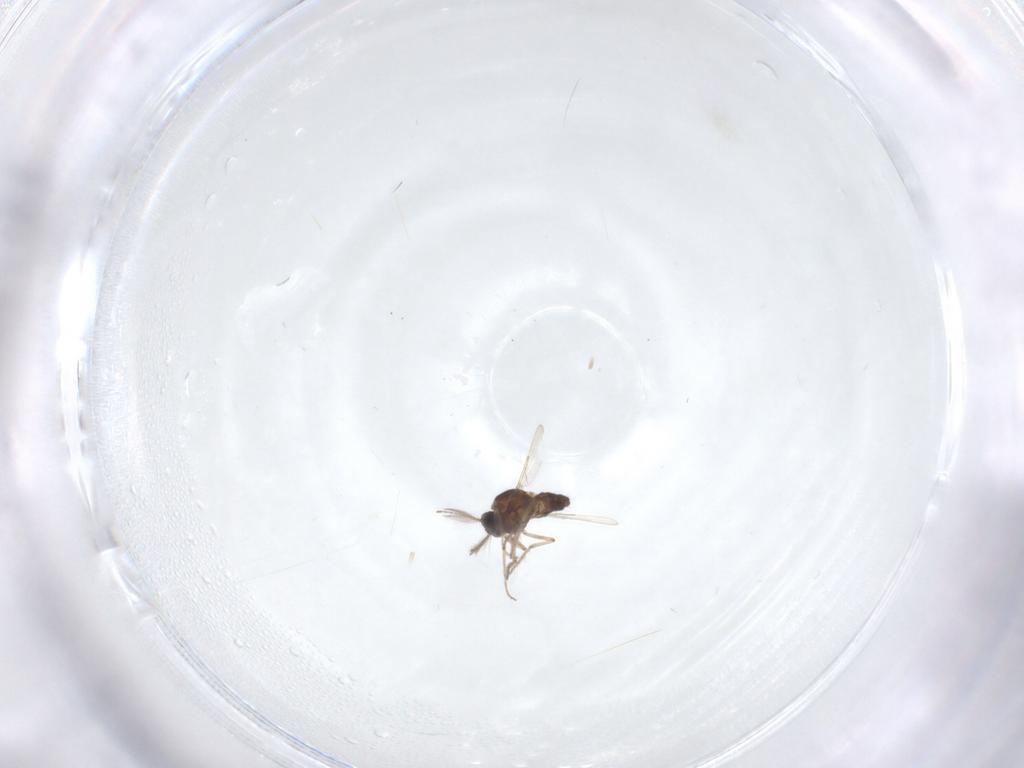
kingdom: Animalia
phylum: Arthropoda
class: Insecta
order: Diptera
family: Ceratopogonidae
